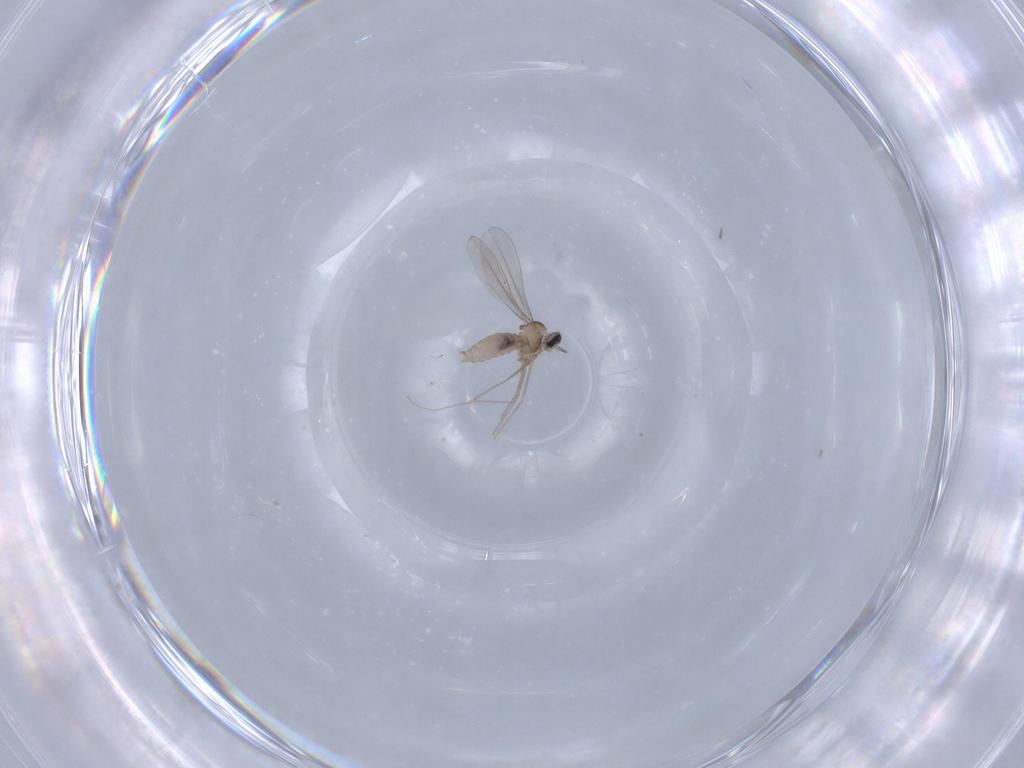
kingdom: Animalia
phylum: Arthropoda
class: Insecta
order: Diptera
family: Cecidomyiidae
